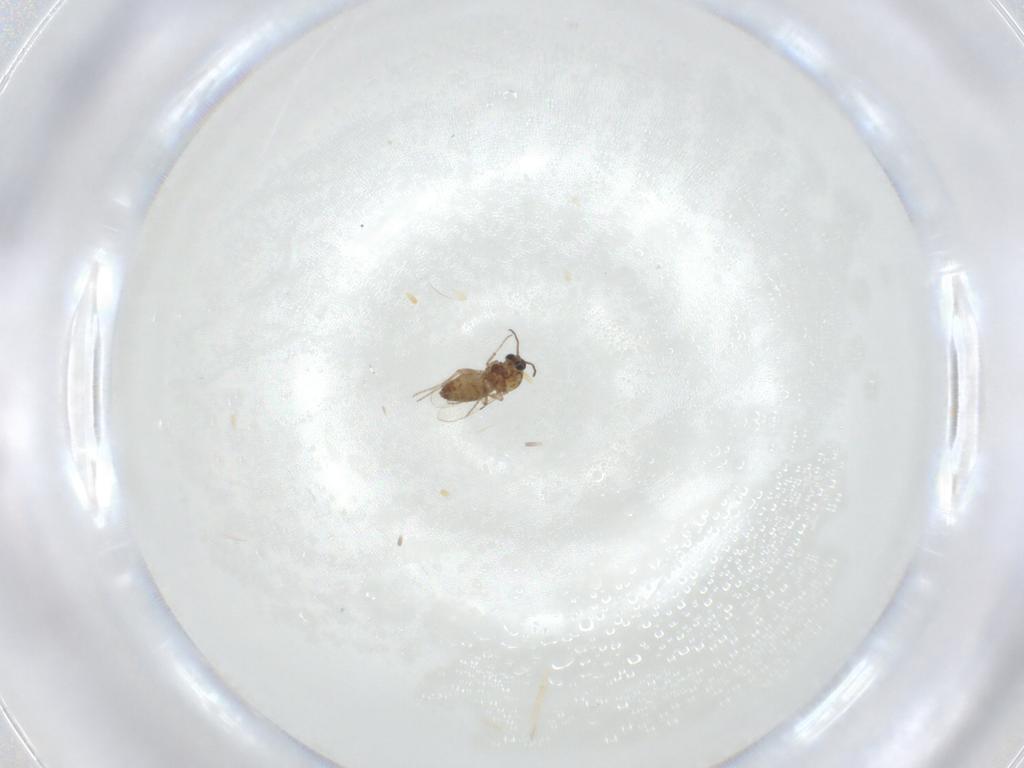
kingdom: Animalia
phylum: Arthropoda
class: Insecta
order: Diptera
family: Ceratopogonidae
